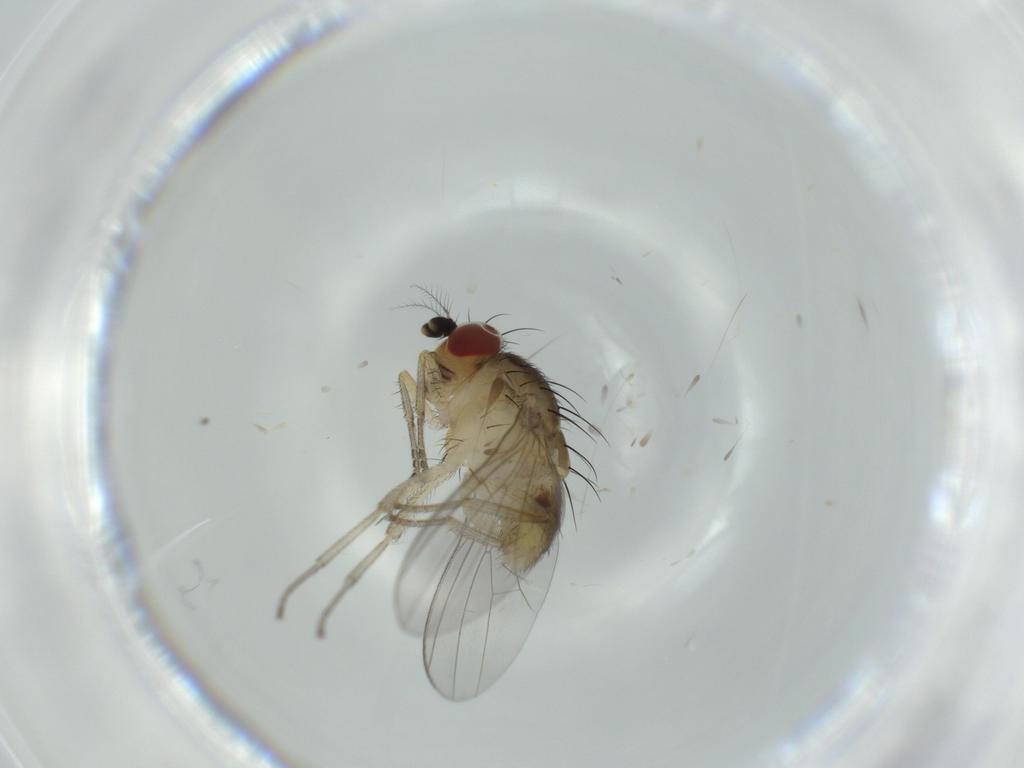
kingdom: Animalia
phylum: Arthropoda
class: Insecta
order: Diptera
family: Lauxaniidae
